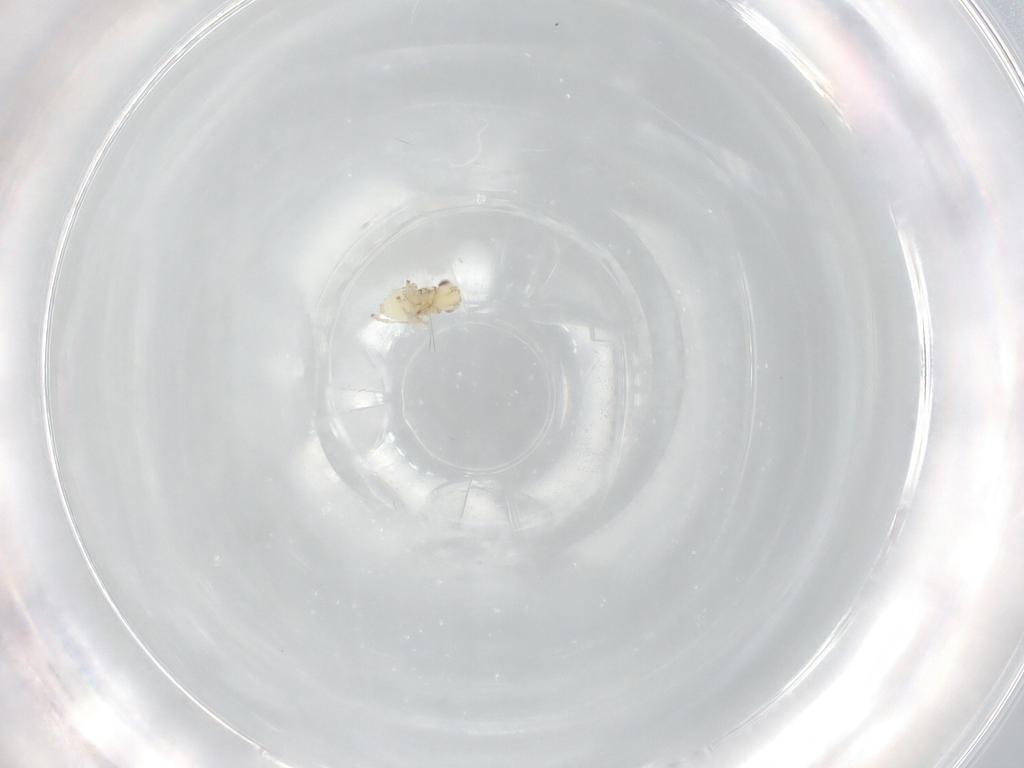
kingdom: Animalia
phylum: Arthropoda
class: Insecta
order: Hemiptera
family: Cicadellidae
